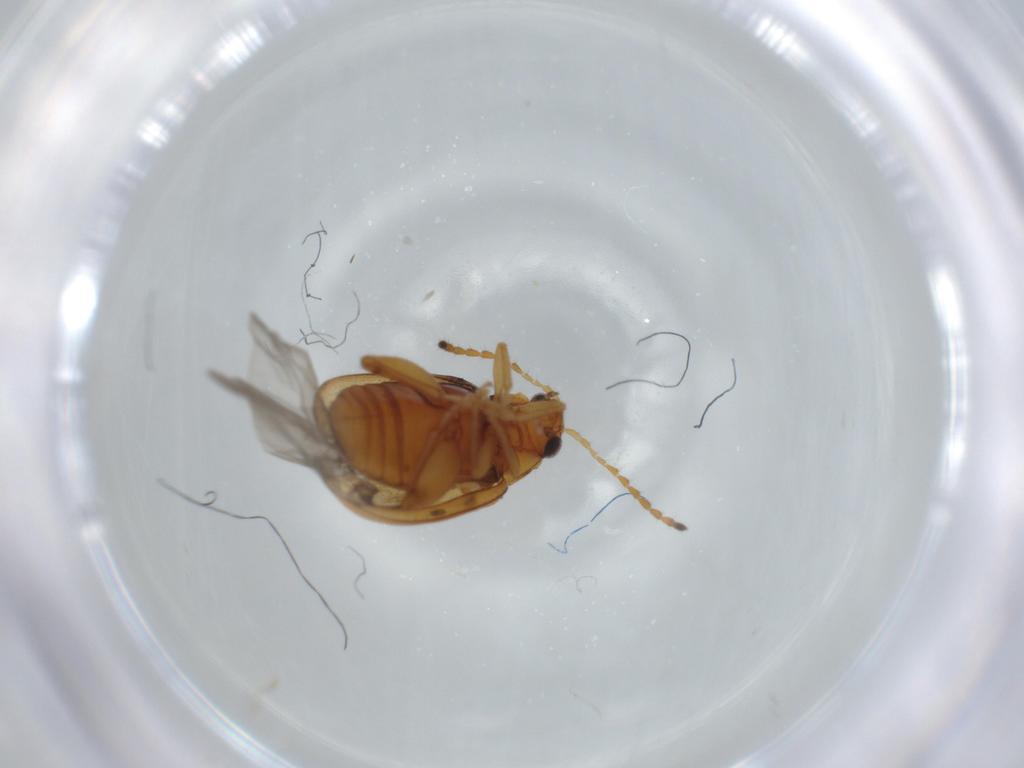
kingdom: Animalia
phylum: Arthropoda
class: Insecta
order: Coleoptera
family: Chrysomelidae
